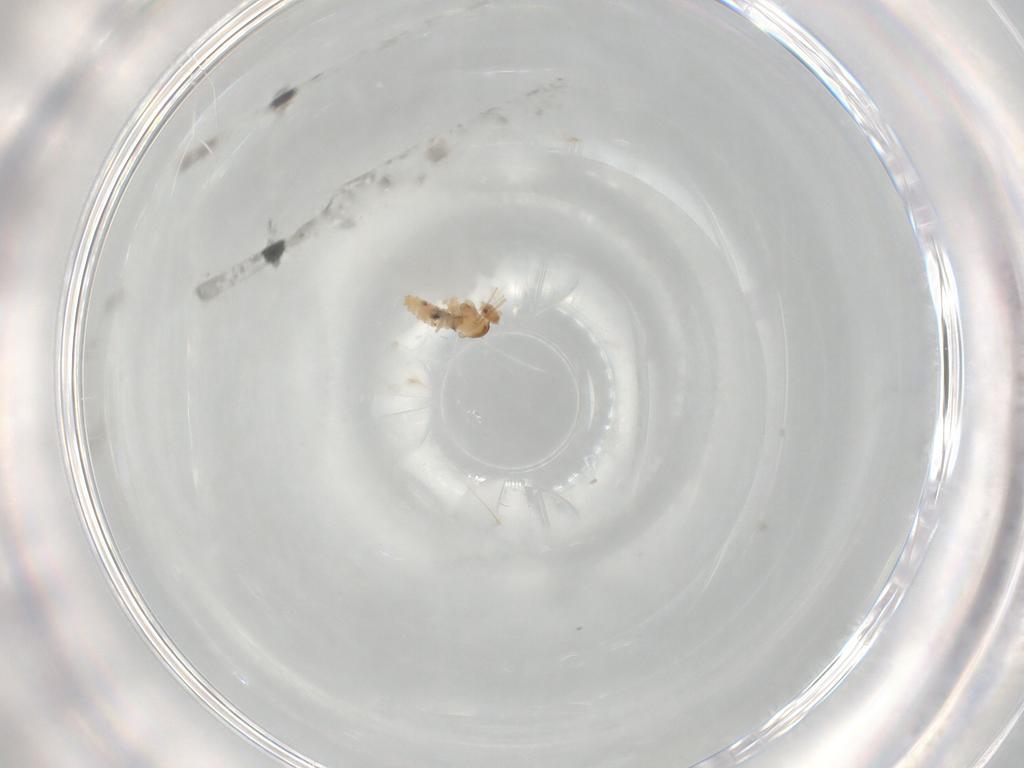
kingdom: Animalia
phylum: Arthropoda
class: Insecta
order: Diptera
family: Cecidomyiidae
